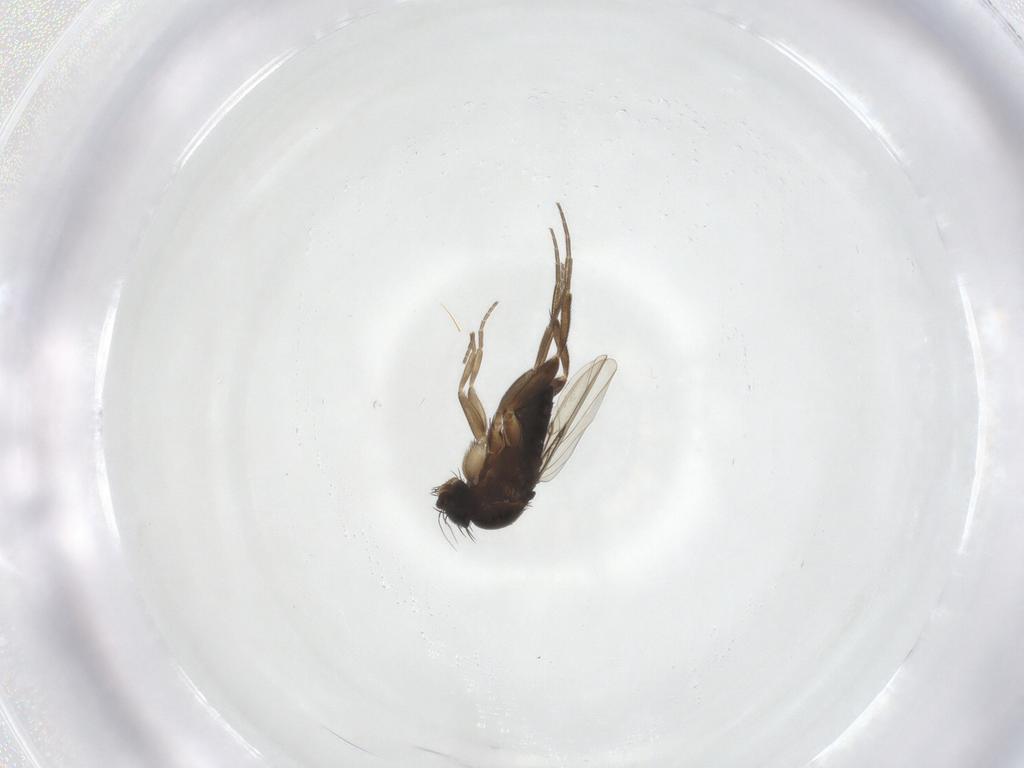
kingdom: Animalia
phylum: Arthropoda
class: Insecta
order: Diptera
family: Phoridae
